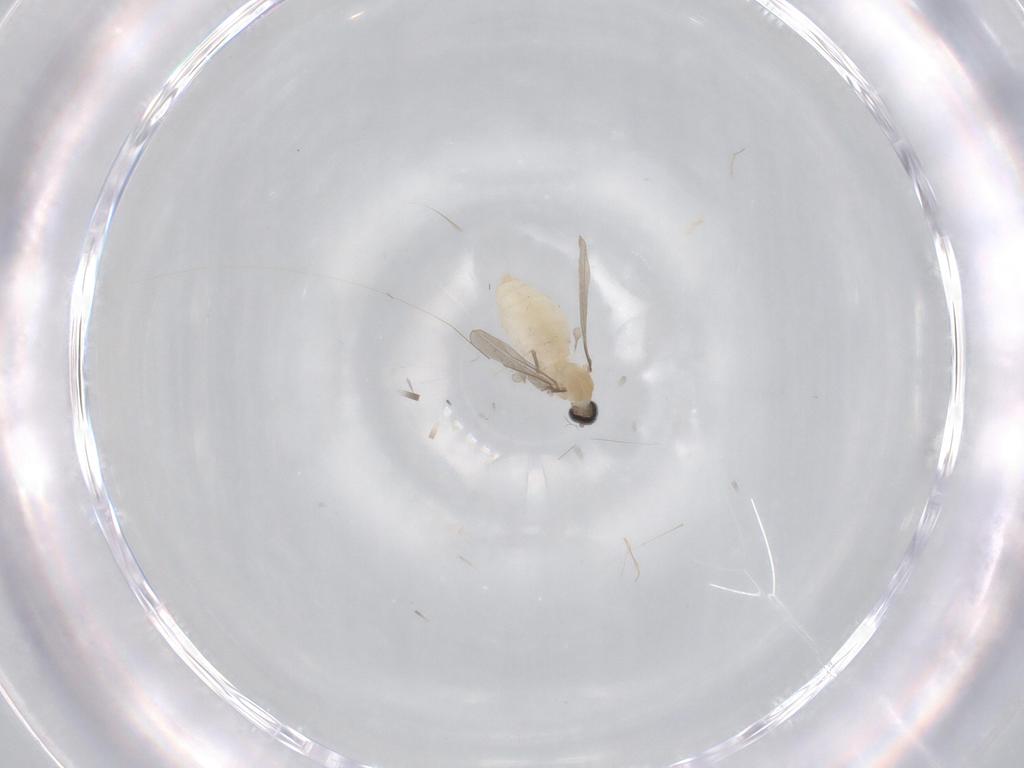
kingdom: Animalia
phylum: Arthropoda
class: Insecta
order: Diptera
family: Cecidomyiidae
